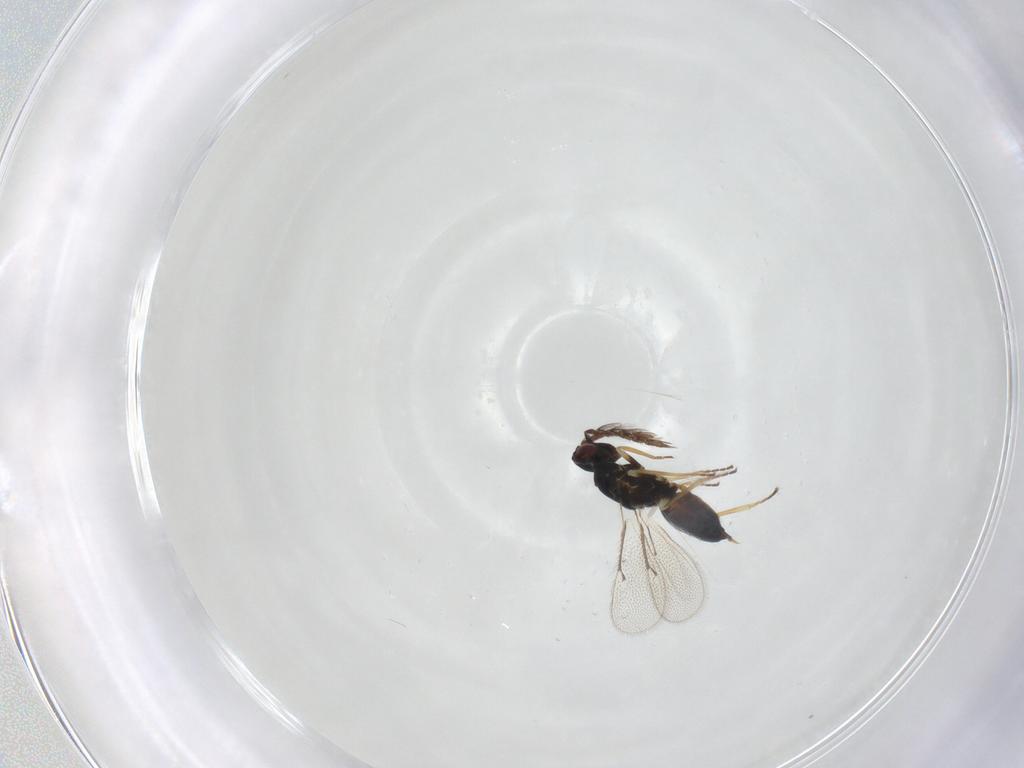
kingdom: Animalia
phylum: Arthropoda
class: Insecta
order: Hymenoptera
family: Eulophidae
